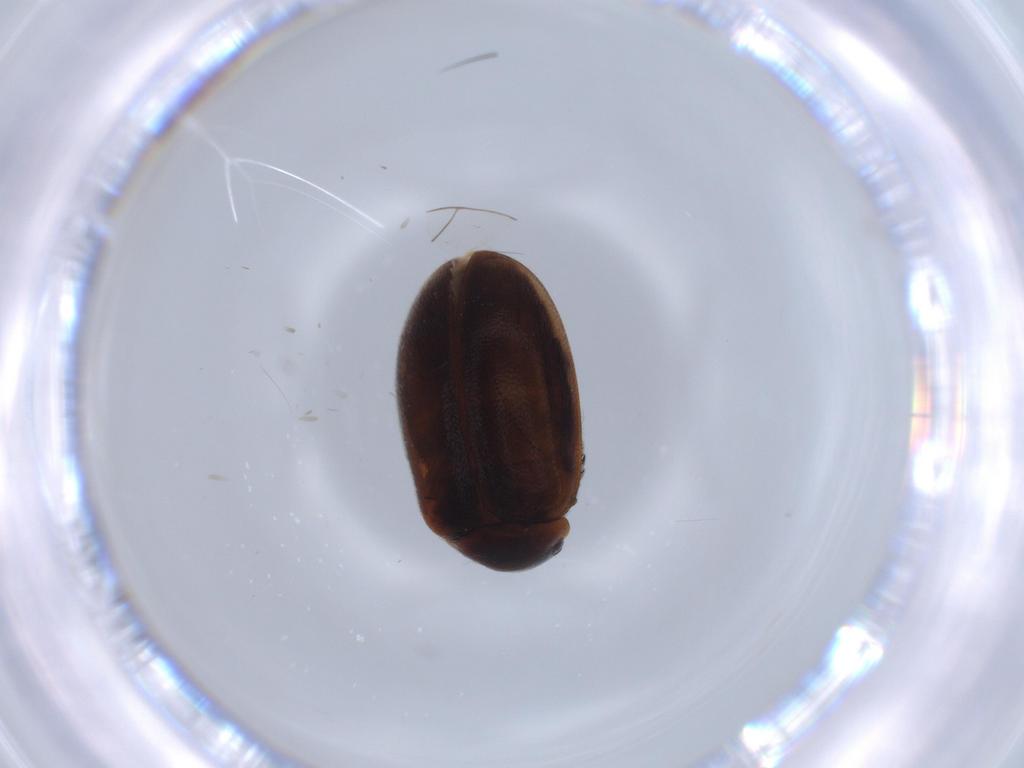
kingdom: Animalia
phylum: Arthropoda
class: Insecta
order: Coleoptera
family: Scirtidae
